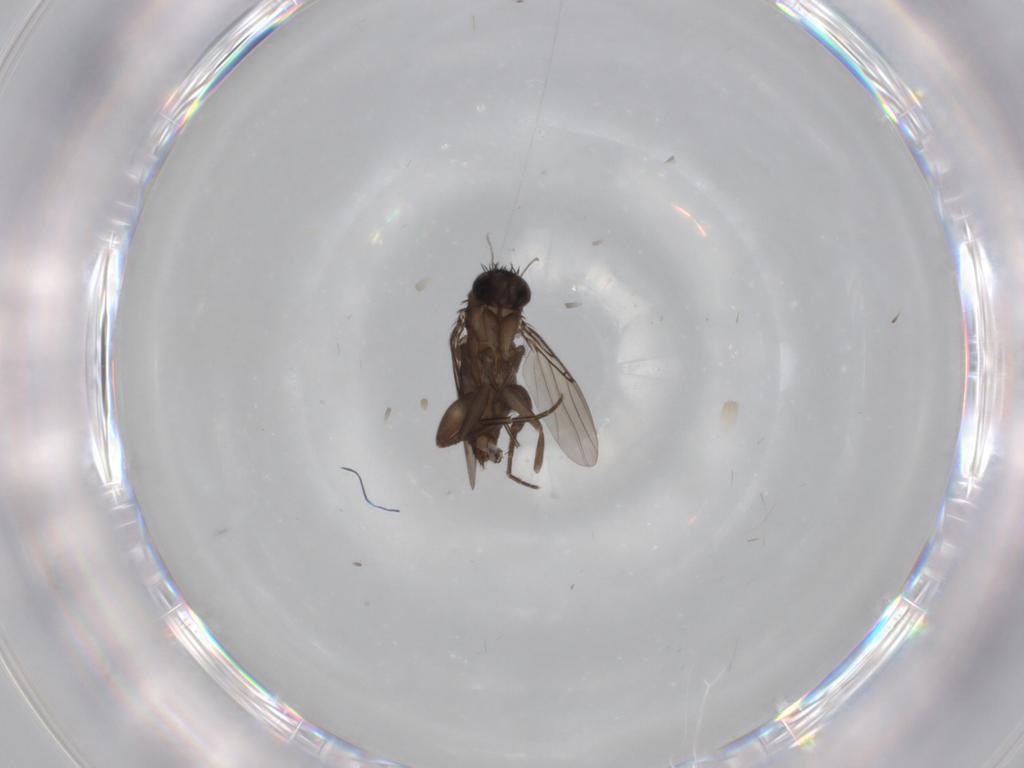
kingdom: Animalia
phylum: Arthropoda
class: Insecta
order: Diptera
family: Phoridae
